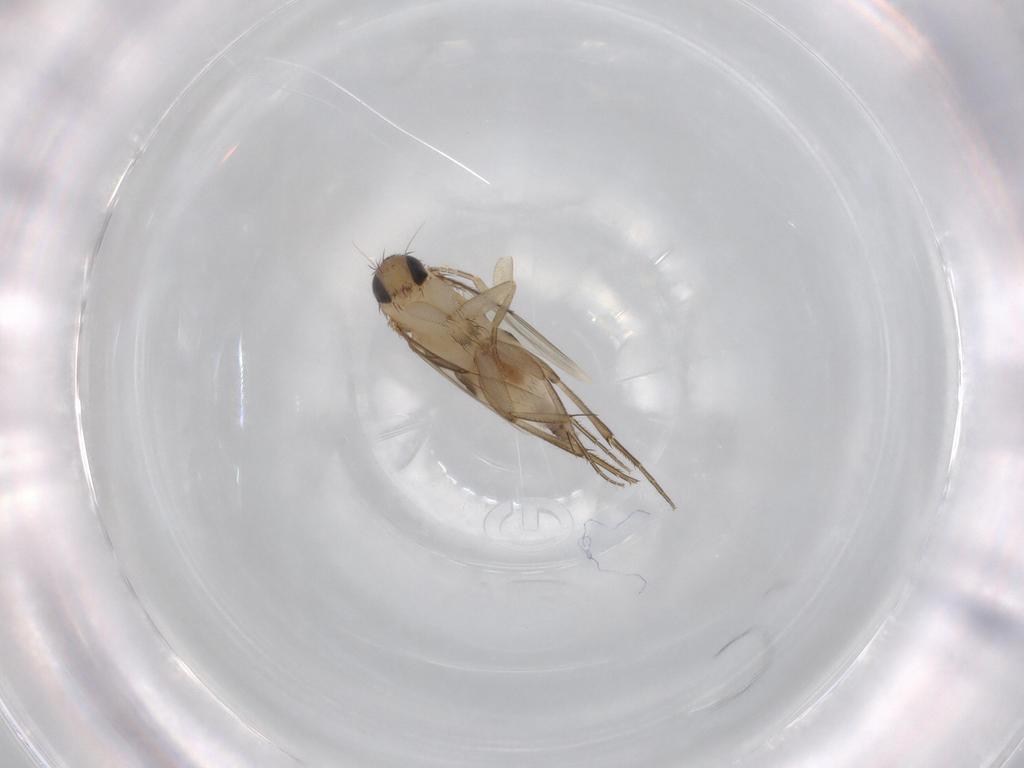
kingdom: Animalia
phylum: Arthropoda
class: Insecta
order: Diptera
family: Phoridae
